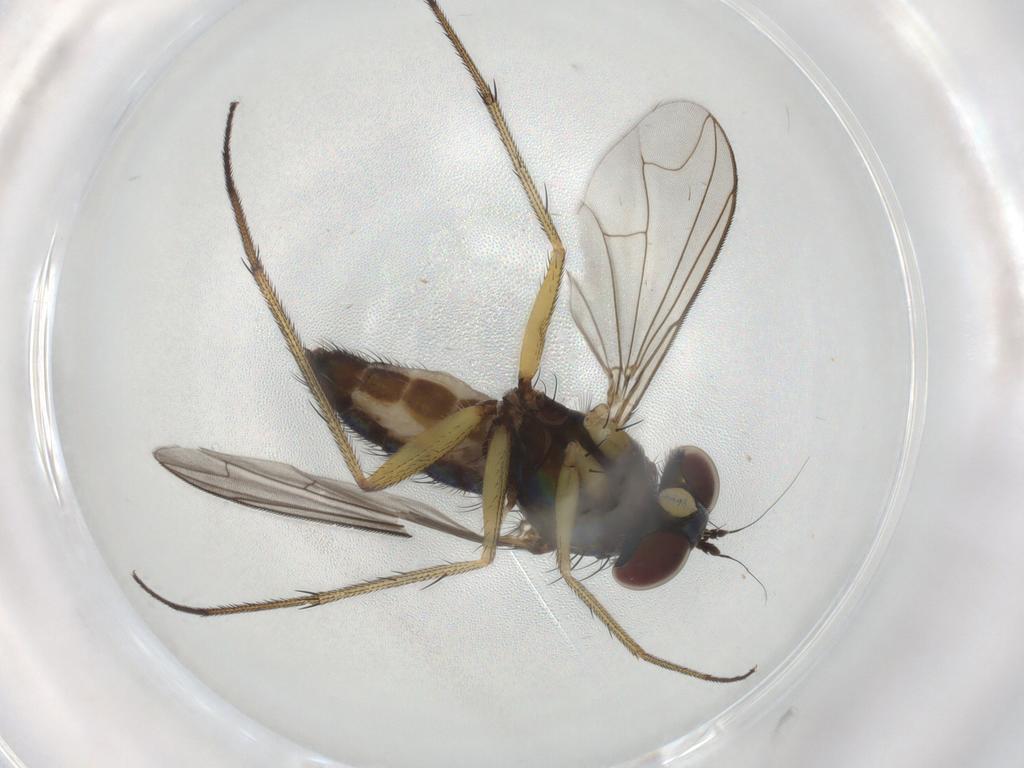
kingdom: Animalia
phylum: Arthropoda
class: Insecta
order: Diptera
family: Dolichopodidae
